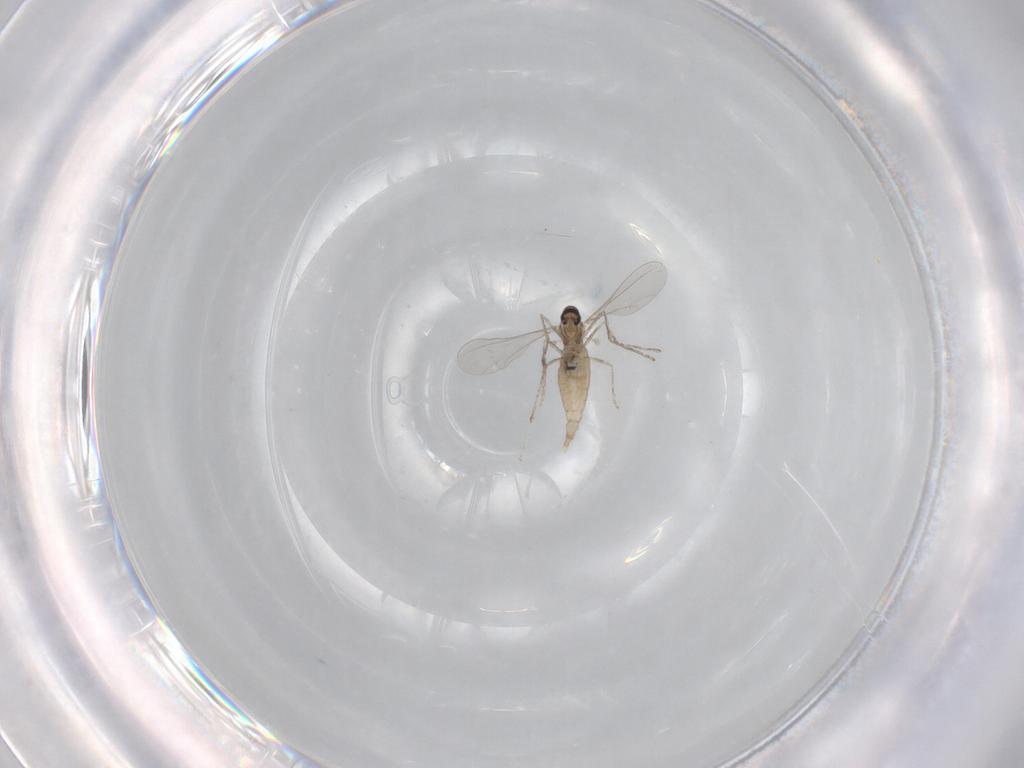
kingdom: Animalia
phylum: Arthropoda
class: Insecta
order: Diptera
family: Chironomidae
